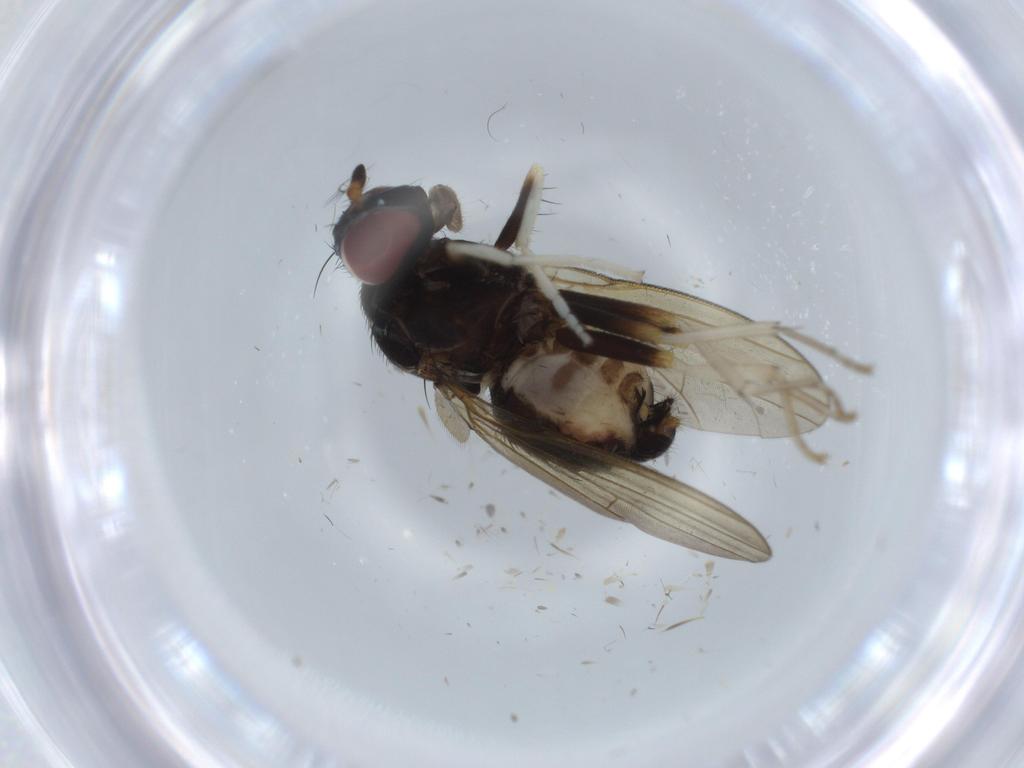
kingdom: Animalia
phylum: Arthropoda
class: Insecta
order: Diptera
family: Lauxaniidae
